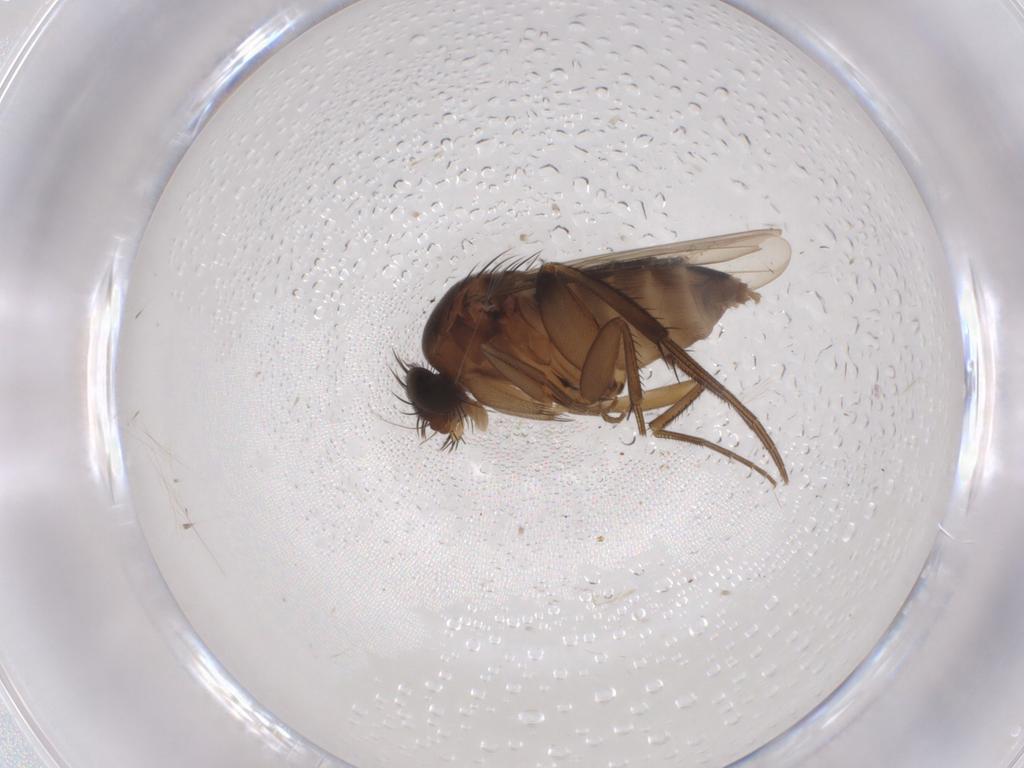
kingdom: Animalia
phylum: Arthropoda
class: Insecta
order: Diptera
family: Phoridae
